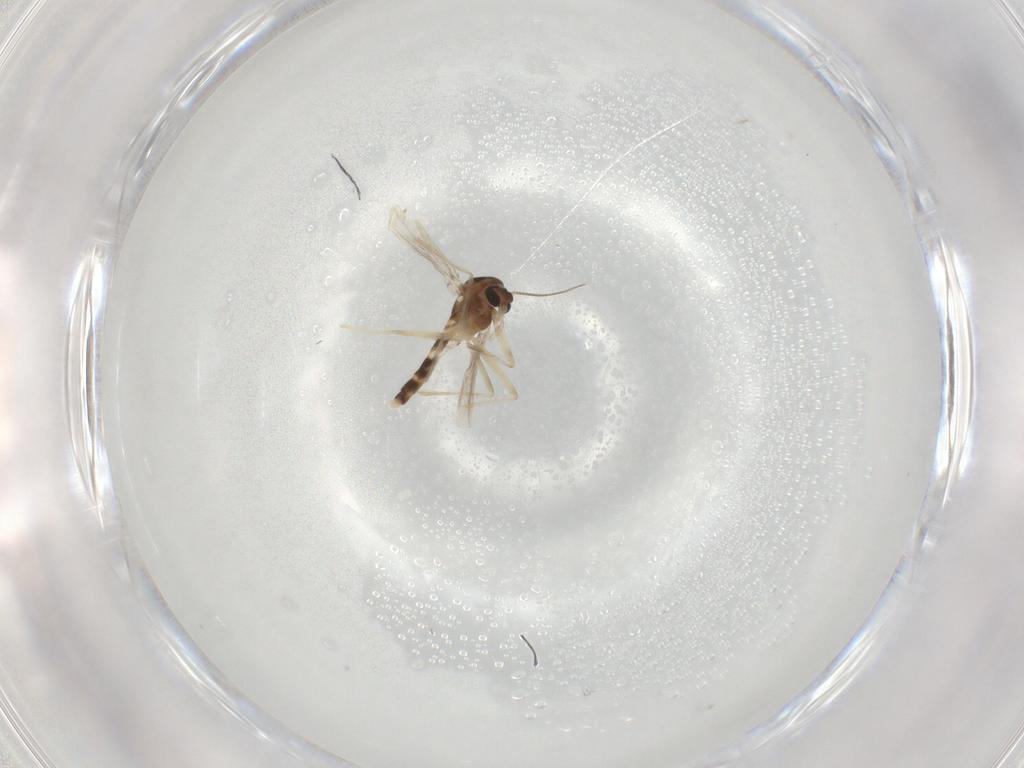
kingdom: Animalia
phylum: Arthropoda
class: Insecta
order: Diptera
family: Chironomidae
